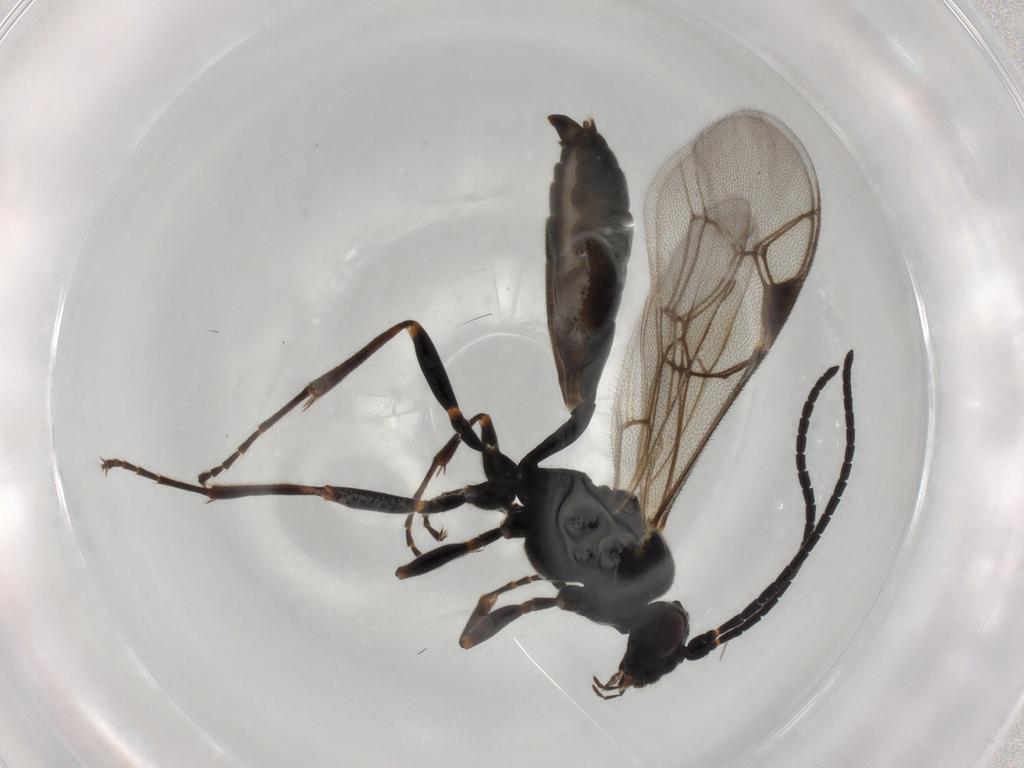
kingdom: Animalia
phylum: Arthropoda
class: Insecta
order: Hymenoptera
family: Ichneumonidae
